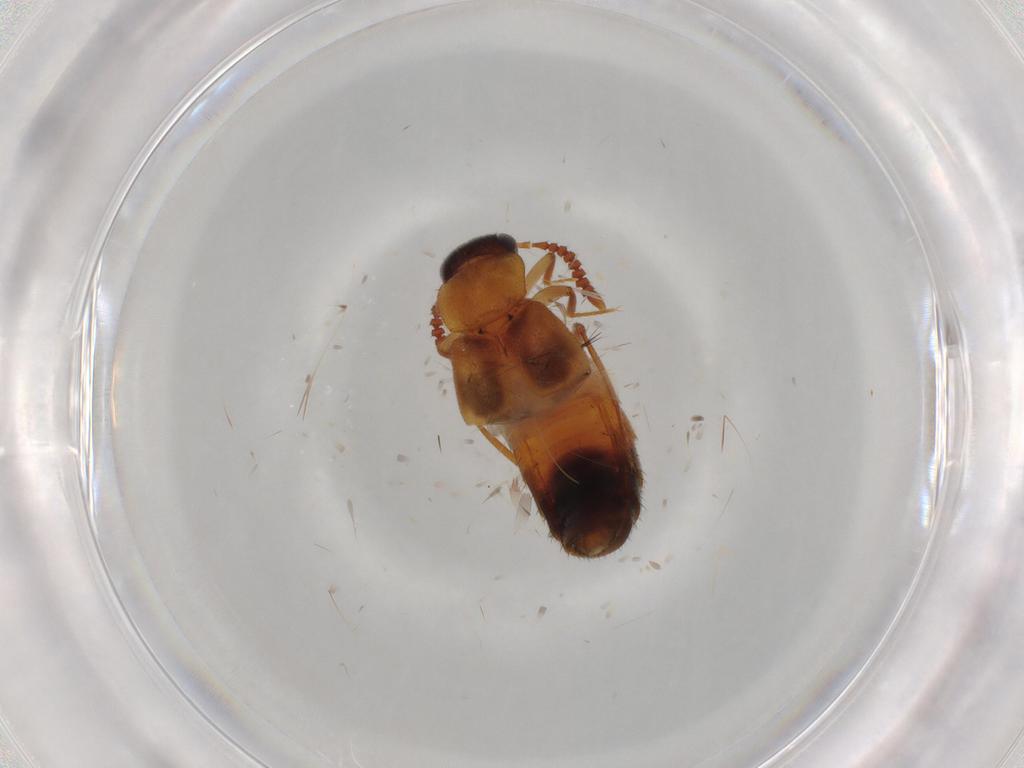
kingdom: Animalia
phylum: Arthropoda
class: Insecta
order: Coleoptera
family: Staphylinidae
